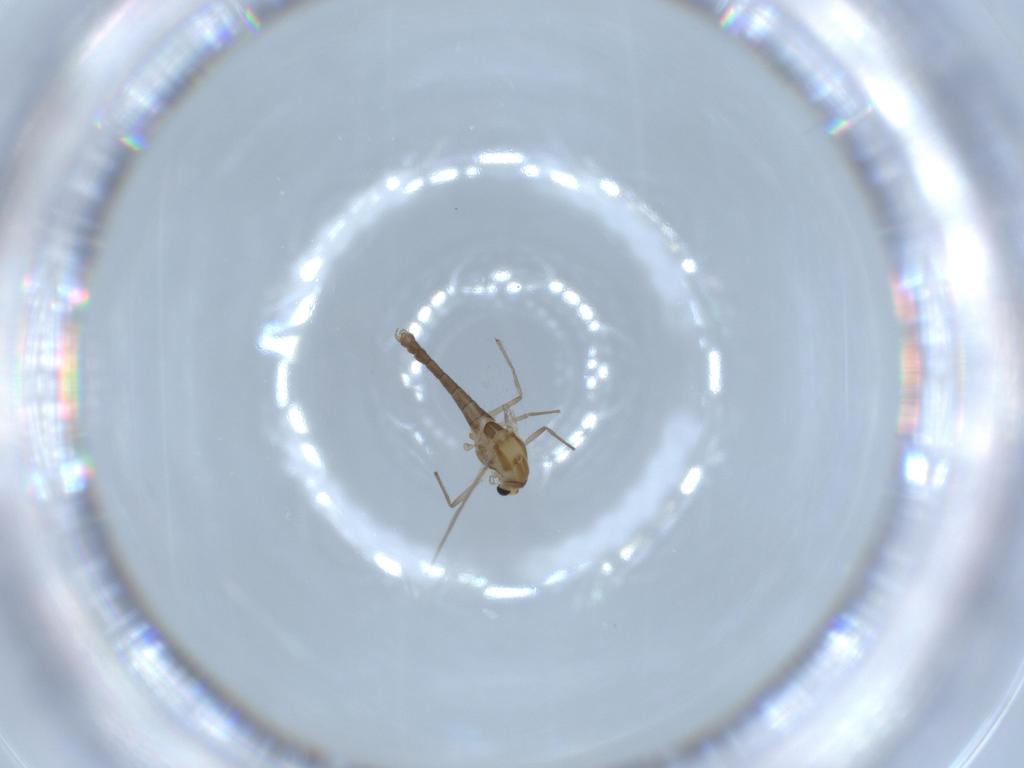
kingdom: Animalia
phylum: Arthropoda
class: Insecta
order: Diptera
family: Chironomidae
